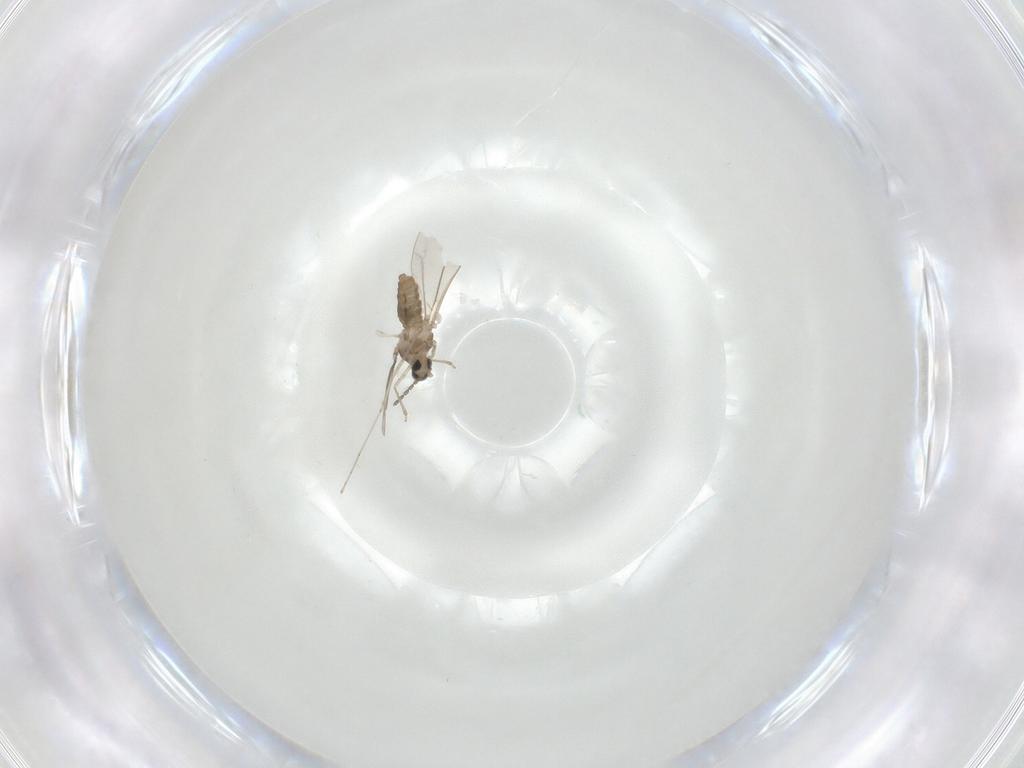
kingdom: Animalia
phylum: Arthropoda
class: Insecta
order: Diptera
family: Cecidomyiidae
